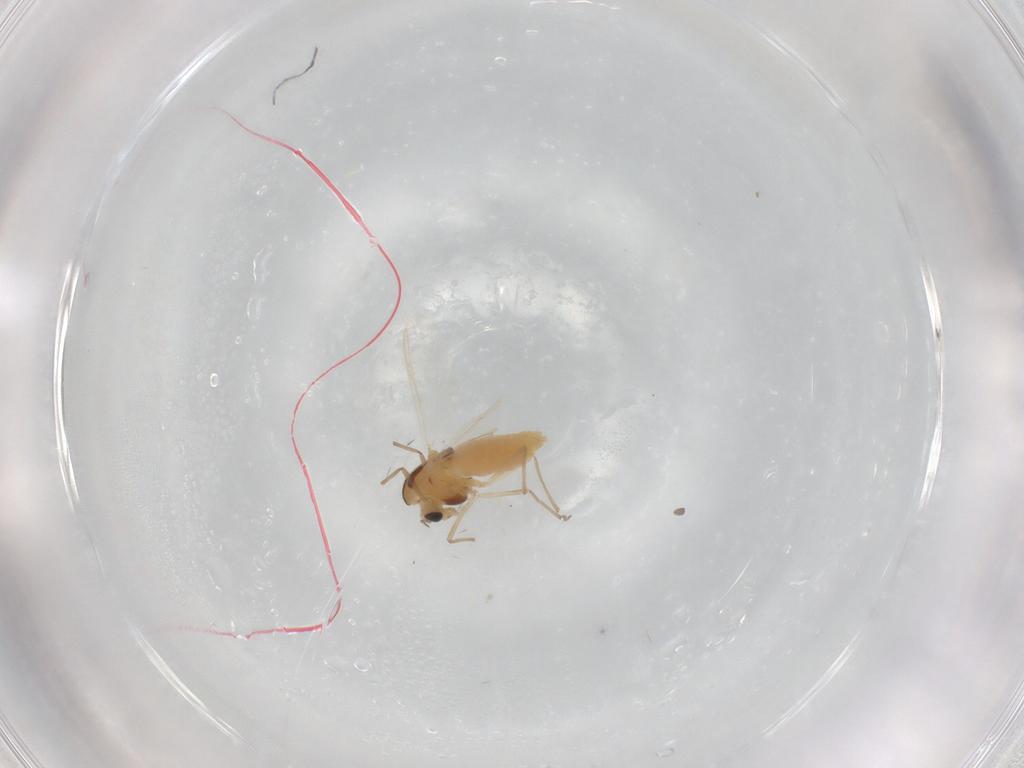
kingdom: Animalia
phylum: Arthropoda
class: Insecta
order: Diptera
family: Chironomidae
